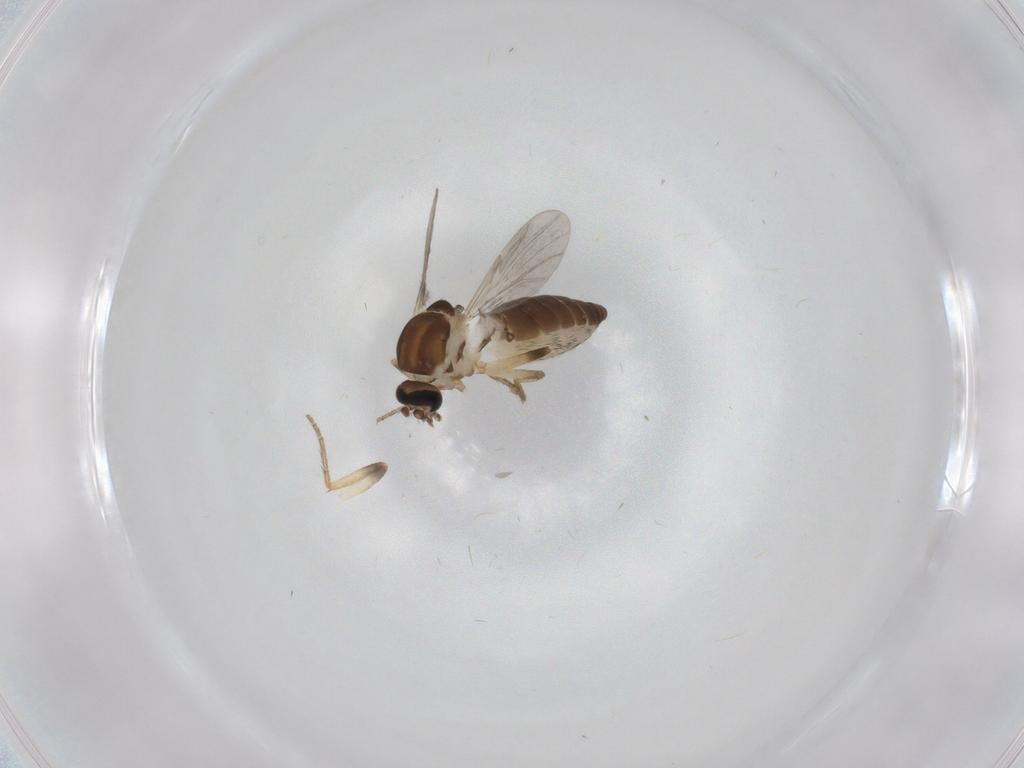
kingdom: Animalia
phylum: Arthropoda
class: Insecta
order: Diptera
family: Ceratopogonidae
